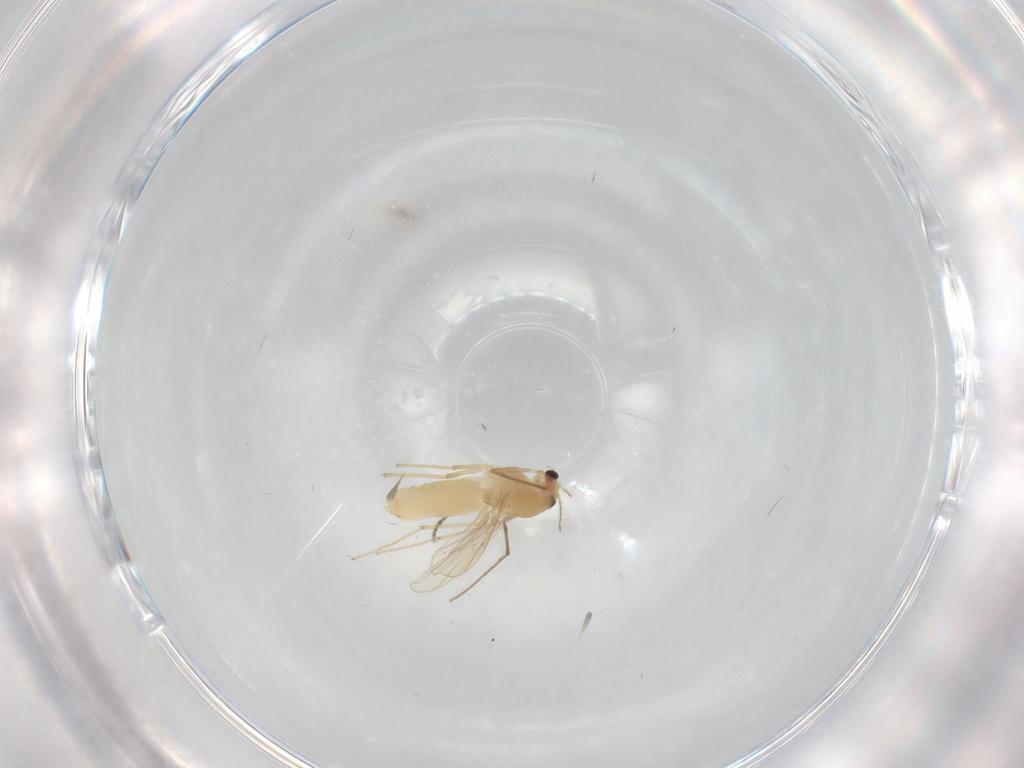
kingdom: Animalia
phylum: Arthropoda
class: Insecta
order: Diptera
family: Chironomidae
